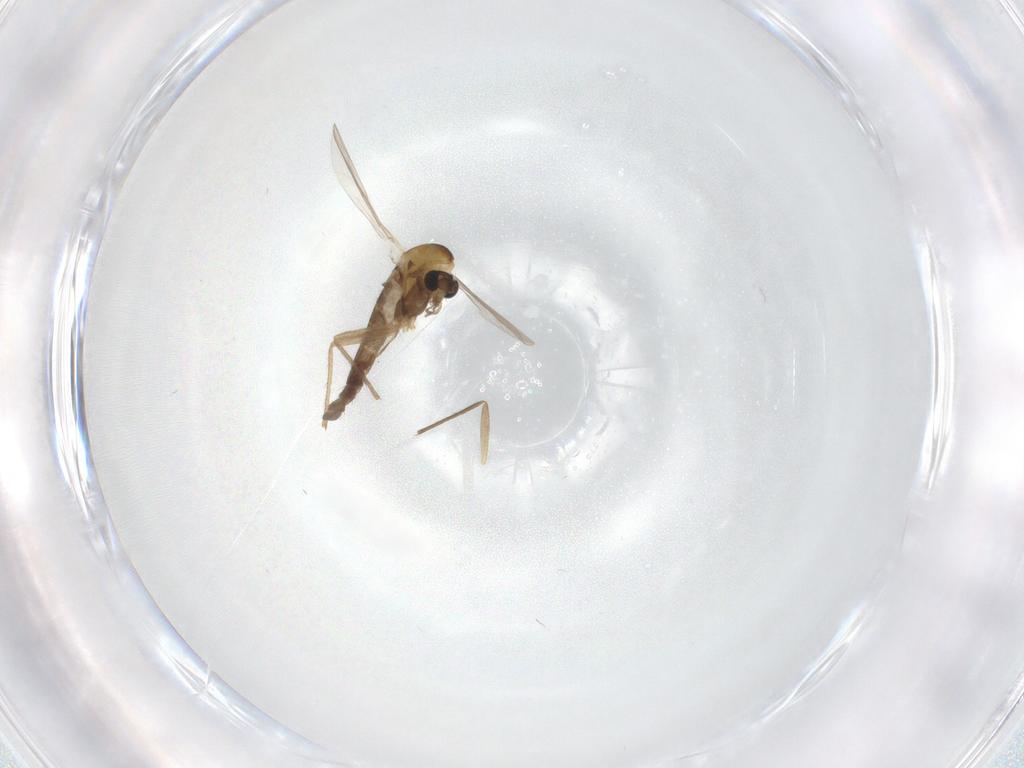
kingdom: Animalia
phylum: Arthropoda
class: Insecta
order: Diptera
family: Chironomidae
